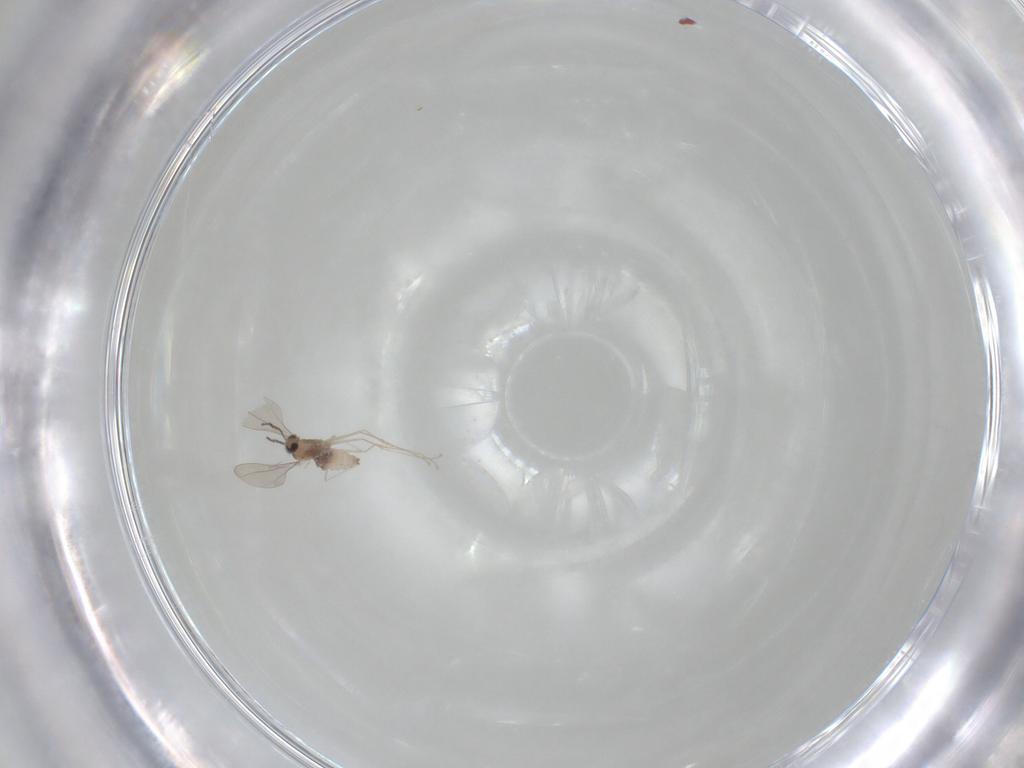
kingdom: Animalia
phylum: Arthropoda
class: Insecta
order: Diptera
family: Cecidomyiidae
